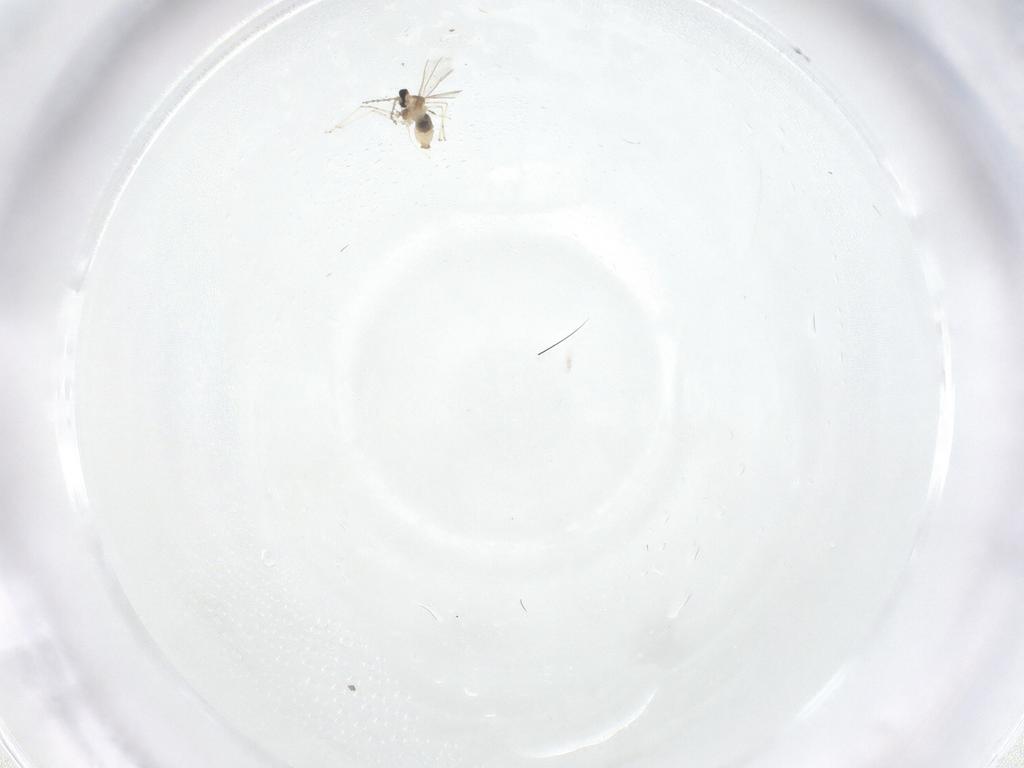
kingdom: Animalia
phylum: Arthropoda
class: Insecta
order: Diptera
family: Cecidomyiidae
